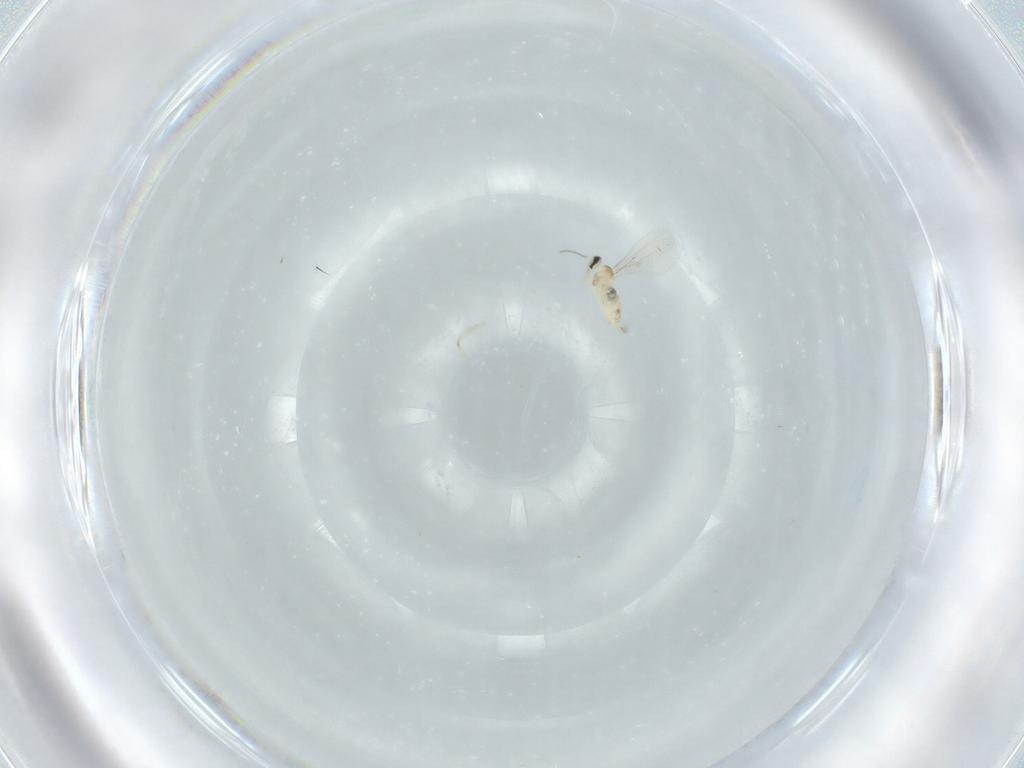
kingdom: Animalia
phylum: Arthropoda
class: Insecta
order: Diptera
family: Cecidomyiidae
